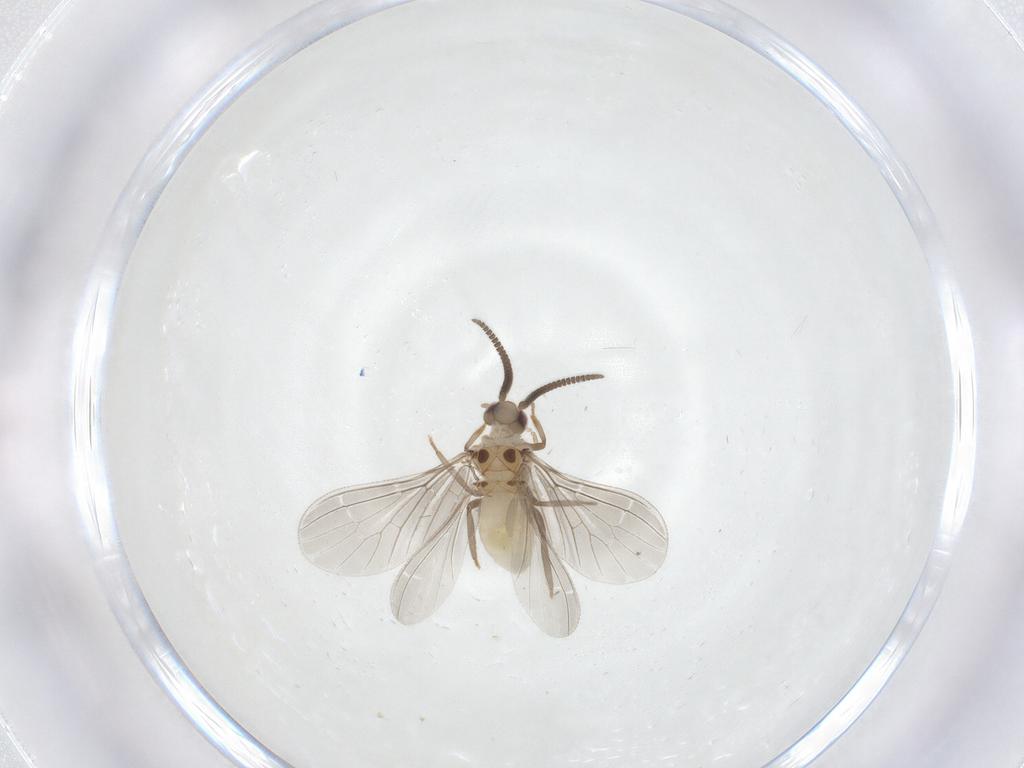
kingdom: Animalia
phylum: Arthropoda
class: Insecta
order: Neuroptera
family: Coniopterygidae
